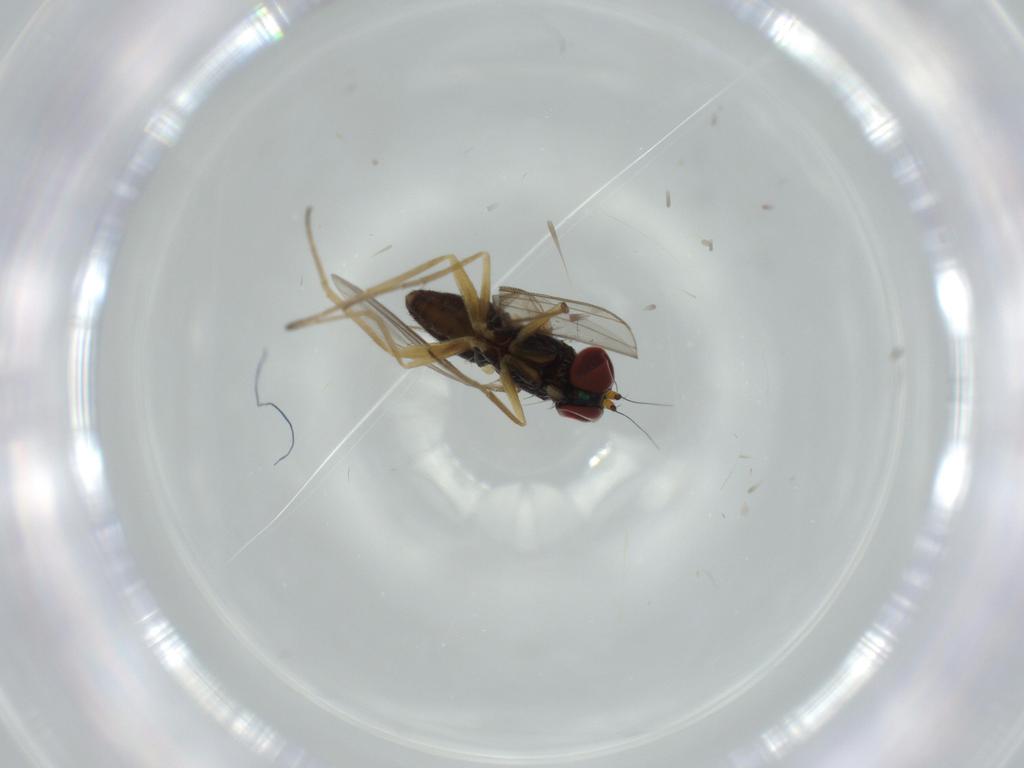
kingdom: Animalia
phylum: Arthropoda
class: Insecta
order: Diptera
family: Dolichopodidae
